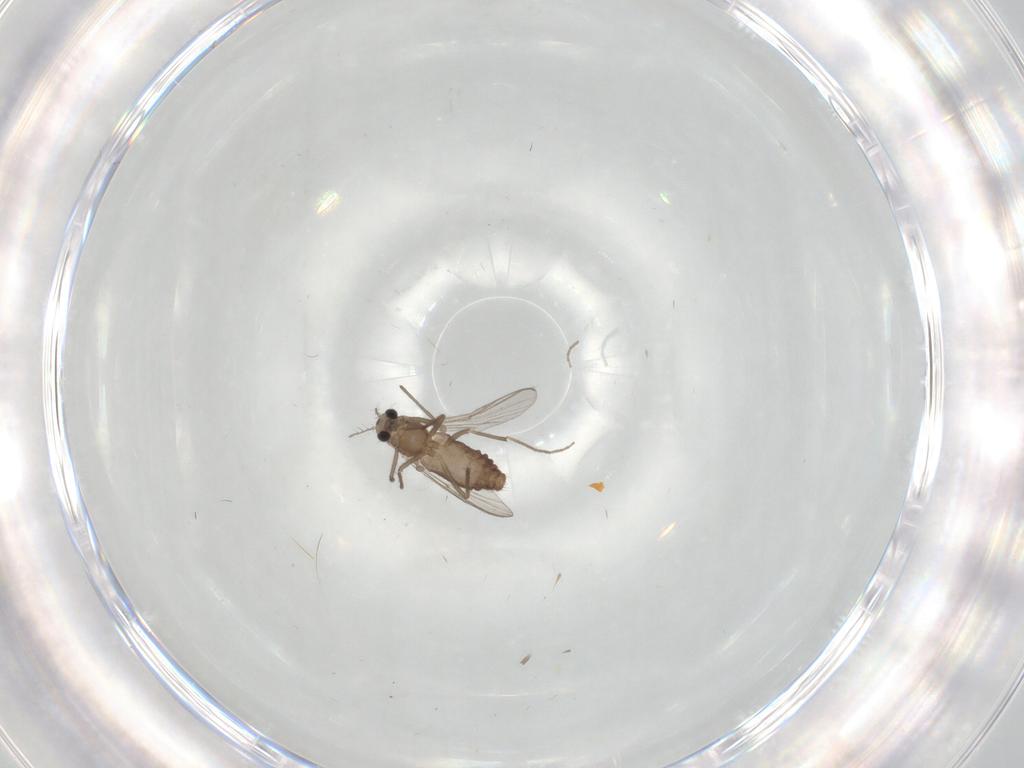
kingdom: Animalia
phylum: Arthropoda
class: Insecta
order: Diptera
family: Chironomidae
